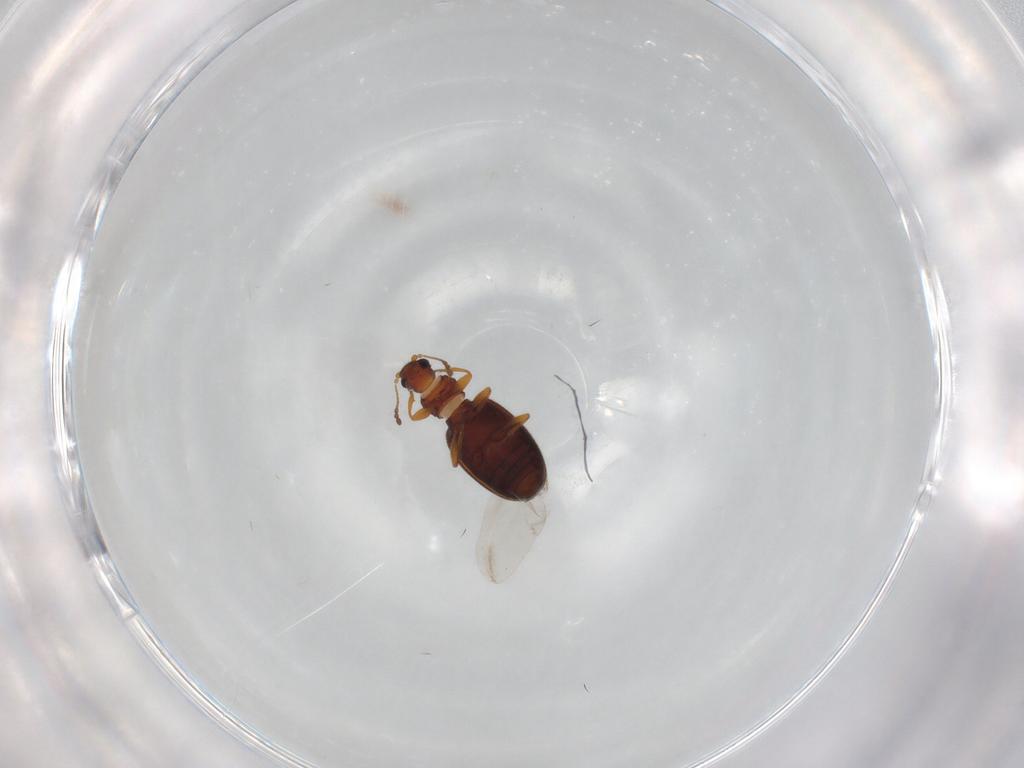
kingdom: Animalia
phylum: Arthropoda
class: Insecta
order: Coleoptera
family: Latridiidae
